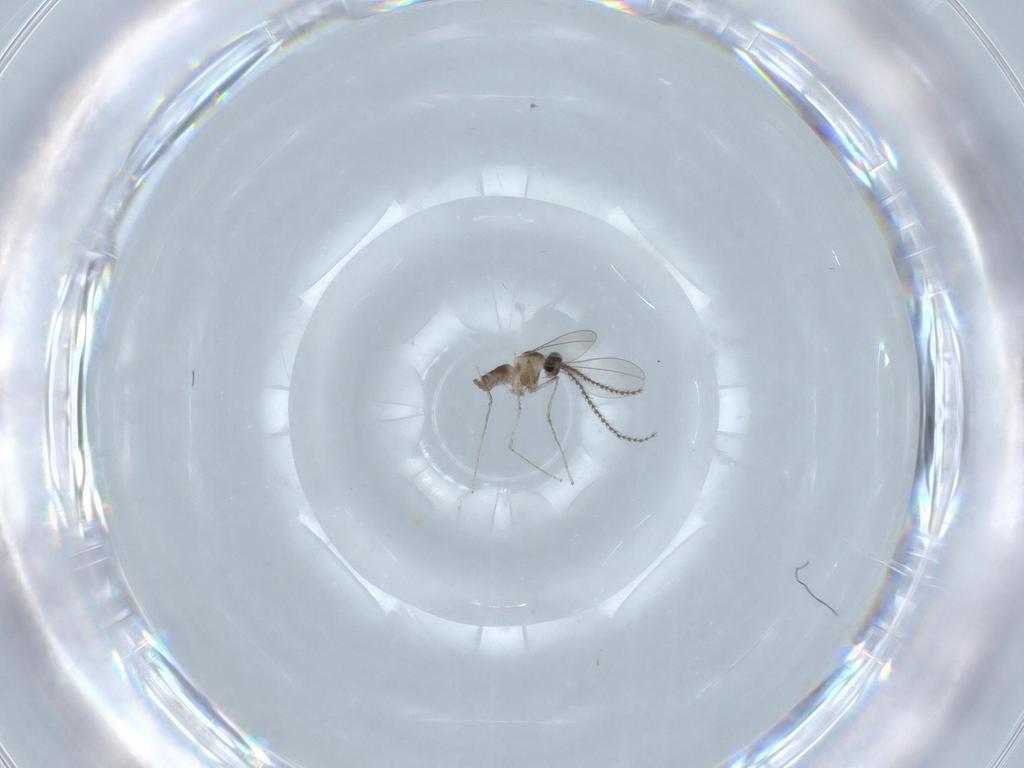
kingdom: Animalia
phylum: Arthropoda
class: Insecta
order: Diptera
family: Cecidomyiidae
